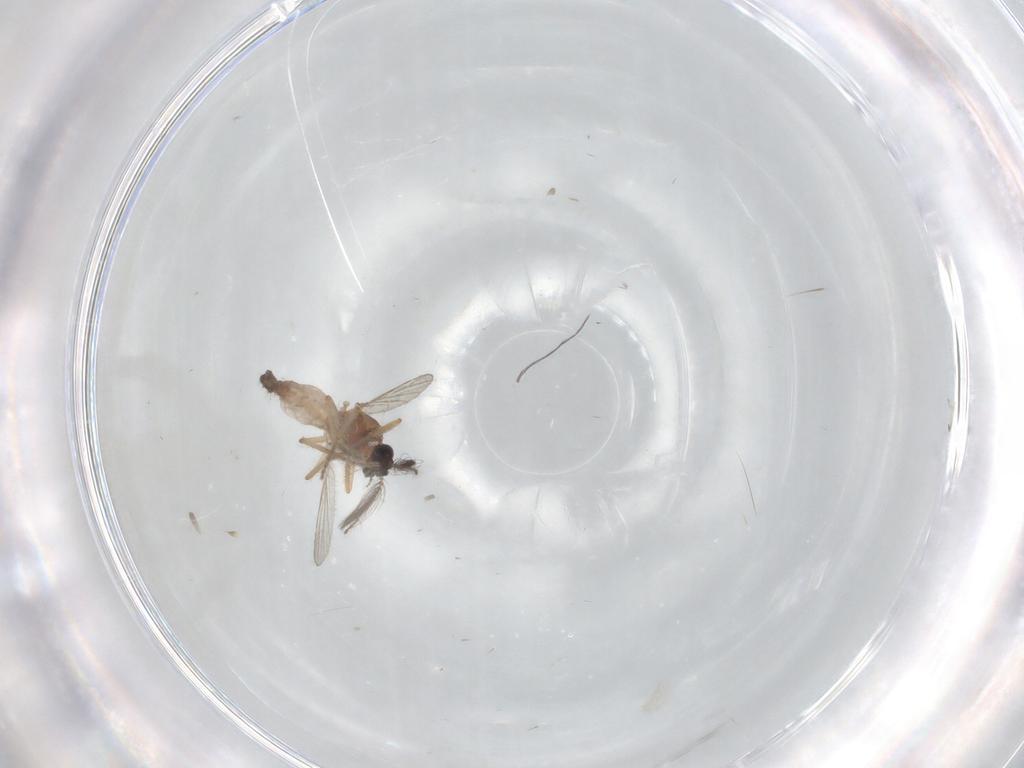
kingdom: Animalia
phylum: Arthropoda
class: Insecta
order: Diptera
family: Ceratopogonidae
